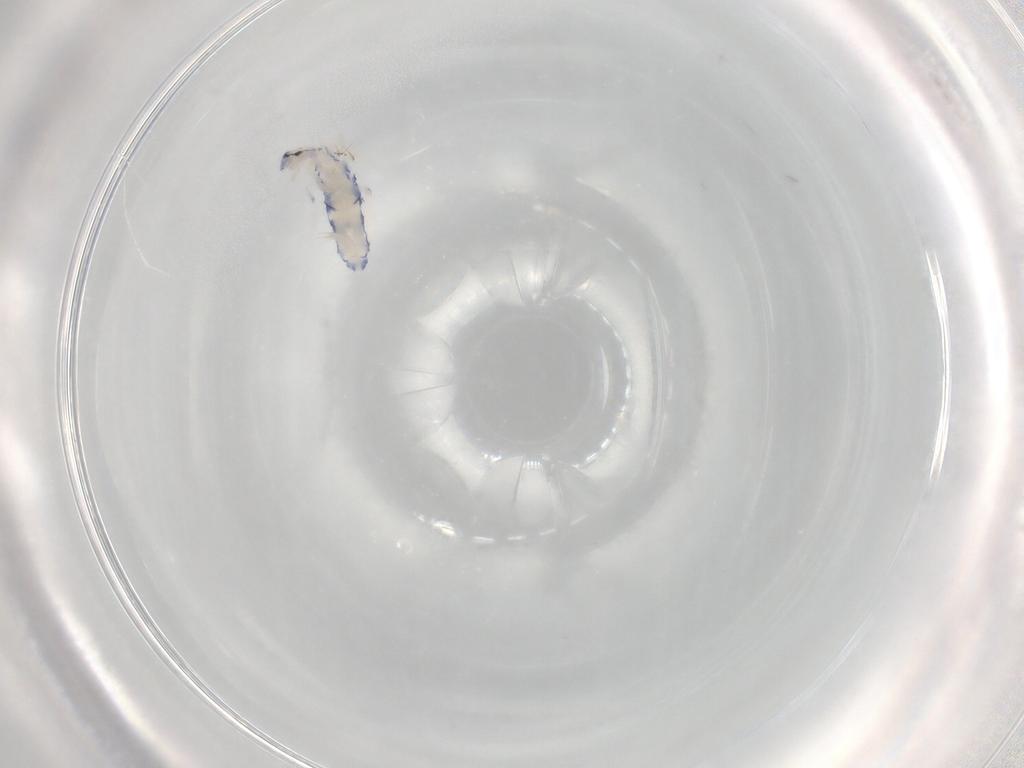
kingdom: Animalia
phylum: Arthropoda
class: Collembola
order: Entomobryomorpha
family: Entomobryidae
